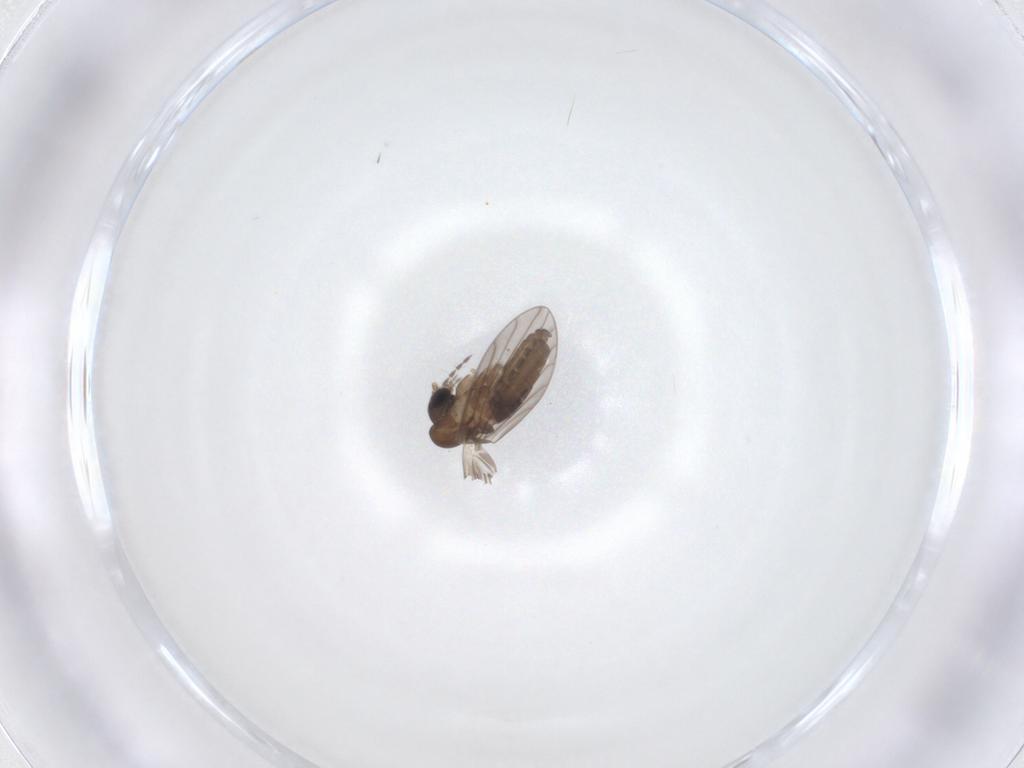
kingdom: Animalia
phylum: Arthropoda
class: Insecta
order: Diptera
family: Psychodidae
